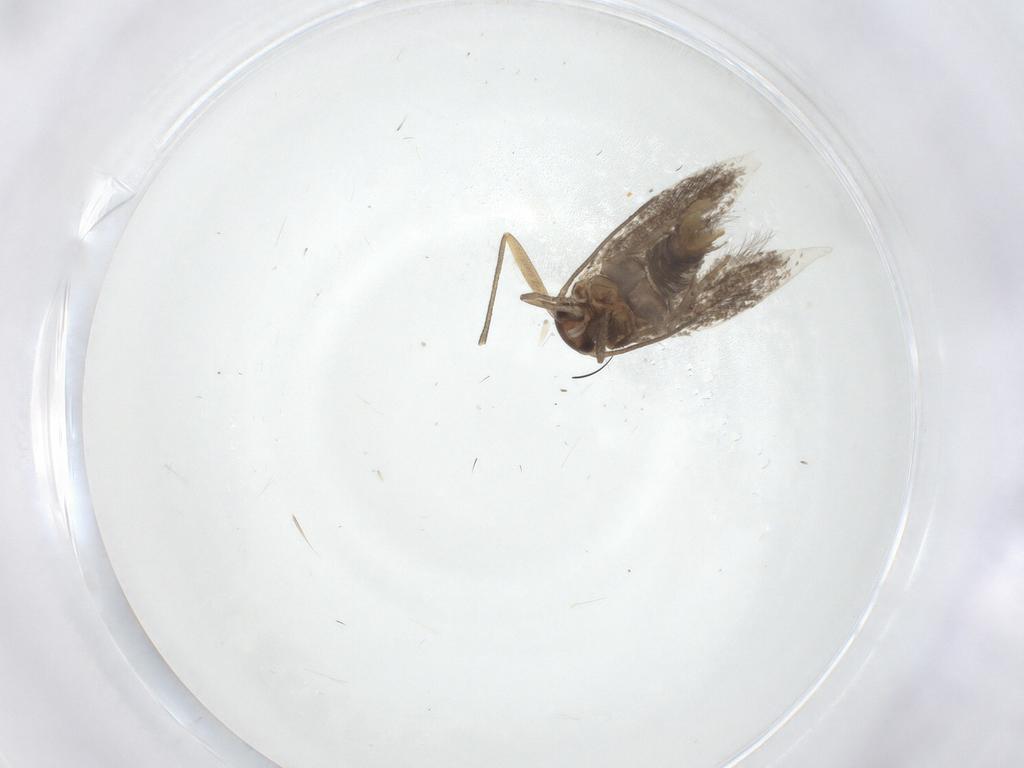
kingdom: Animalia
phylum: Arthropoda
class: Insecta
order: Lepidoptera
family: Elachistidae
